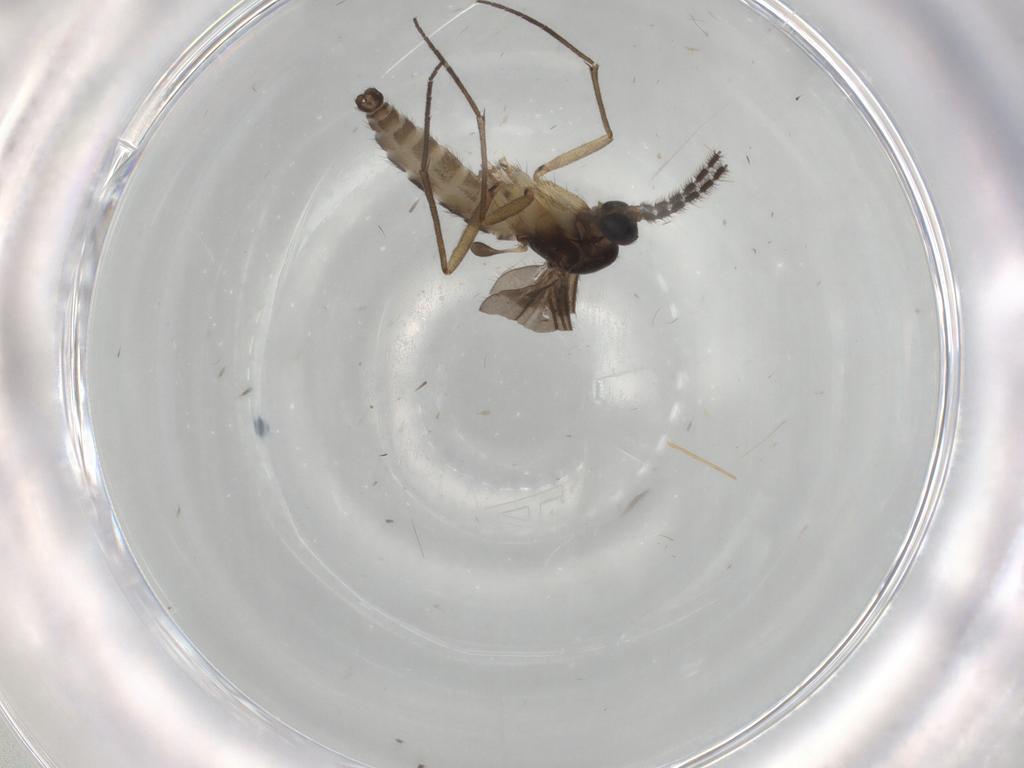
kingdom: Animalia
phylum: Arthropoda
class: Insecta
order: Diptera
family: Sciaridae
